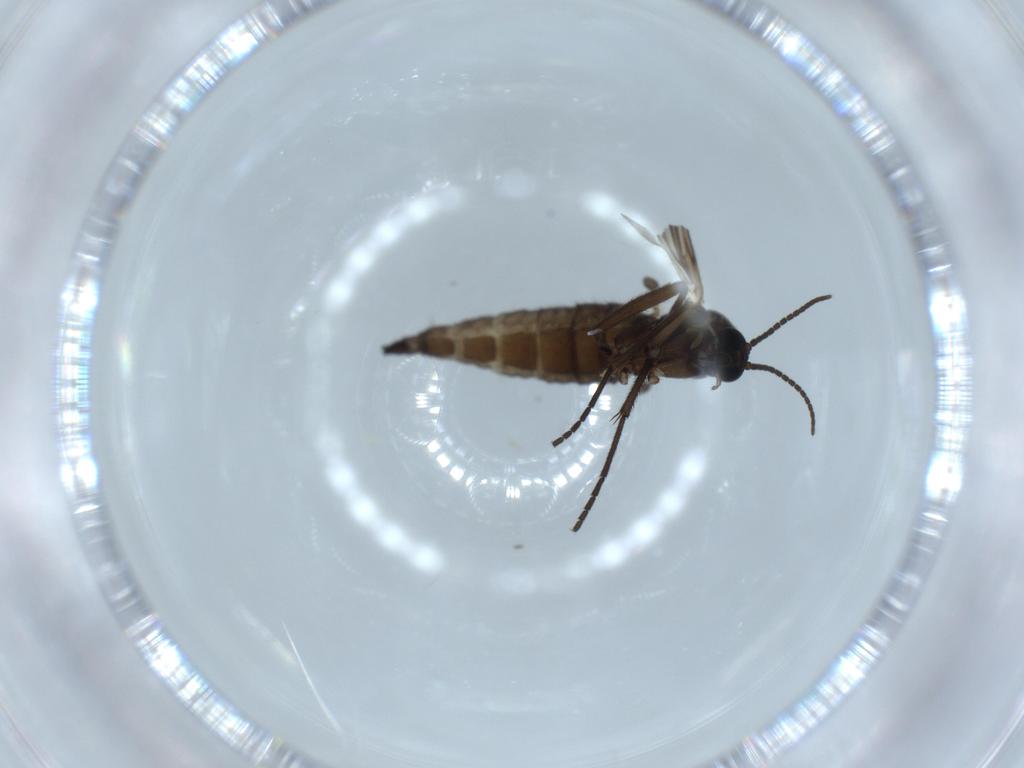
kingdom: Animalia
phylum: Arthropoda
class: Insecta
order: Diptera
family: Sciaridae
